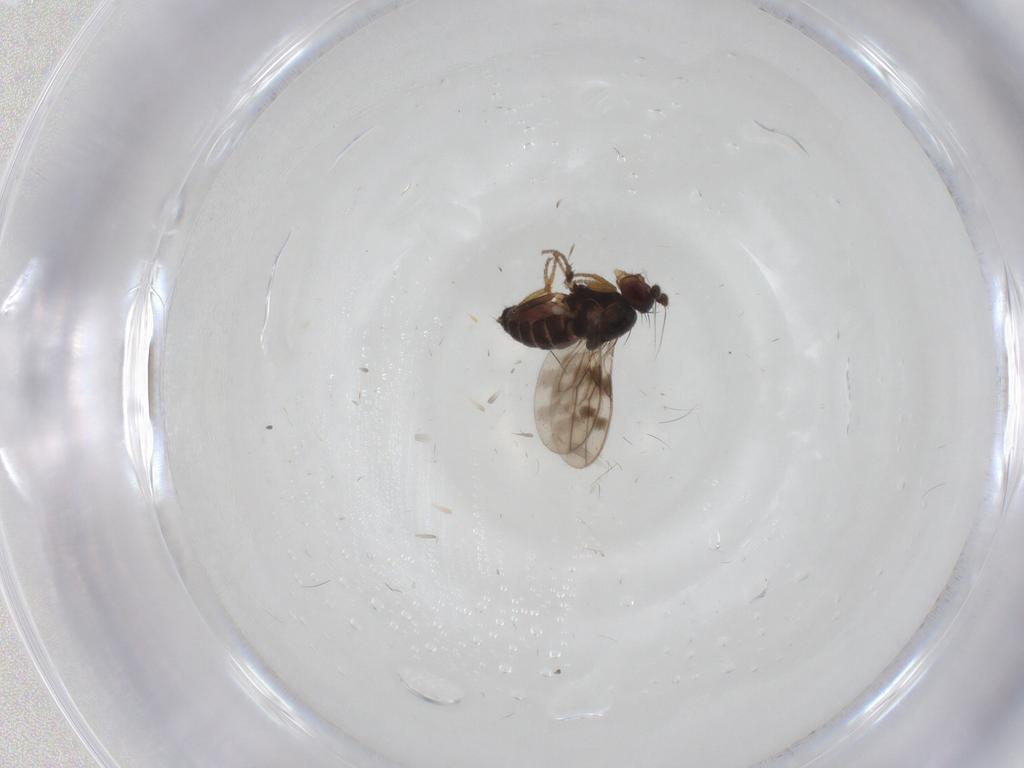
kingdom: Animalia
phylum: Arthropoda
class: Insecta
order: Diptera
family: Sphaeroceridae
